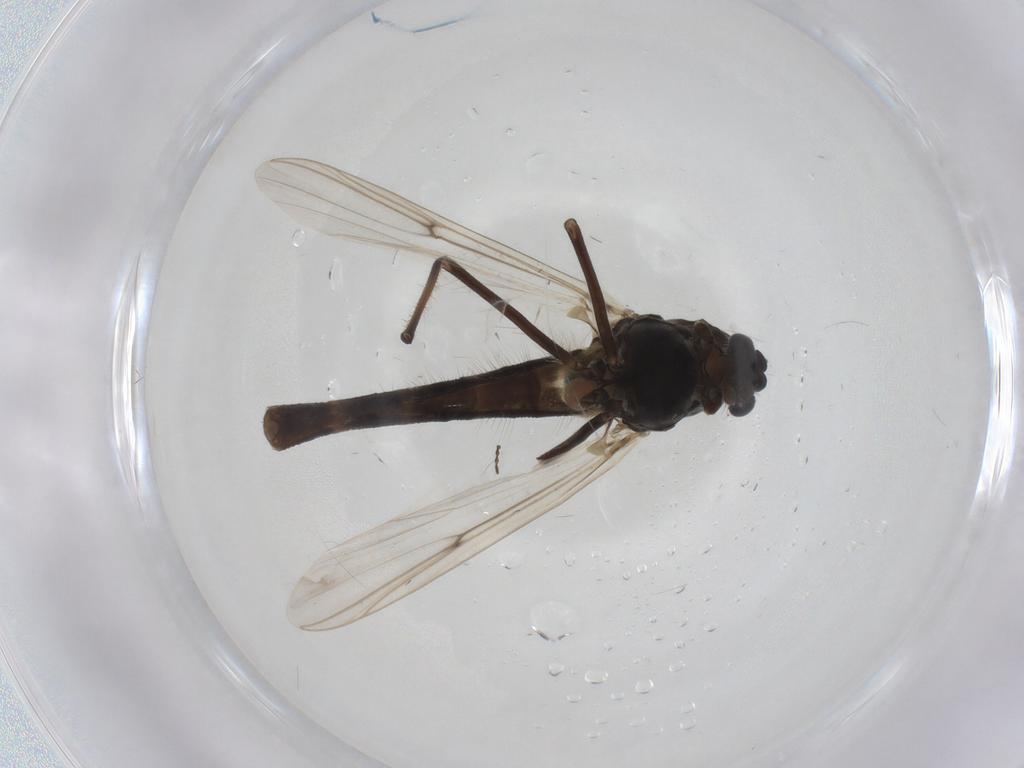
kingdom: Animalia
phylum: Arthropoda
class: Insecta
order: Diptera
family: Chironomidae
